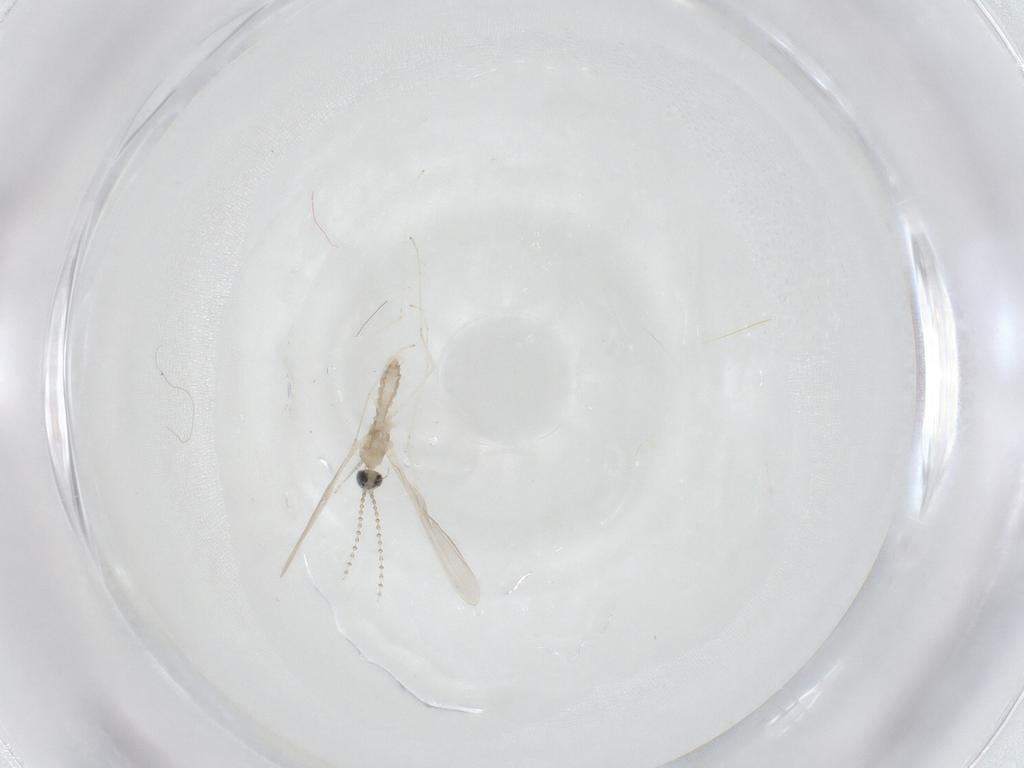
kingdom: Animalia
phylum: Arthropoda
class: Insecta
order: Diptera
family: Cecidomyiidae
